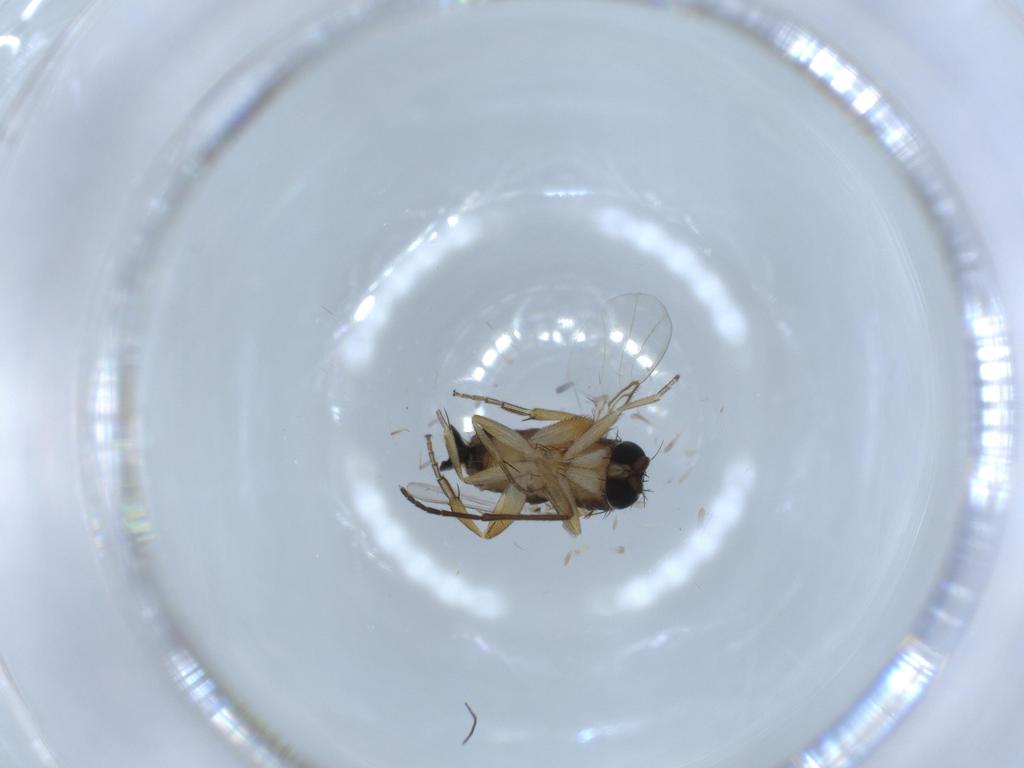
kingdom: Animalia
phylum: Arthropoda
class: Insecta
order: Diptera
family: Phoridae
